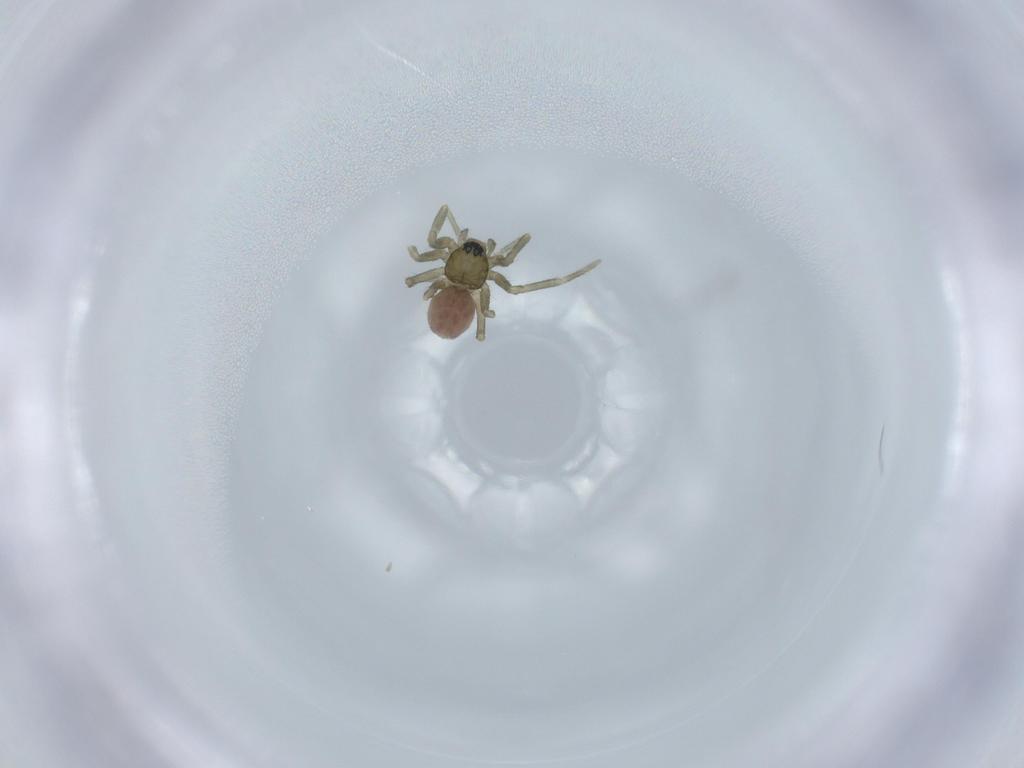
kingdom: Animalia
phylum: Arthropoda
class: Arachnida
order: Araneae
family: Linyphiidae
